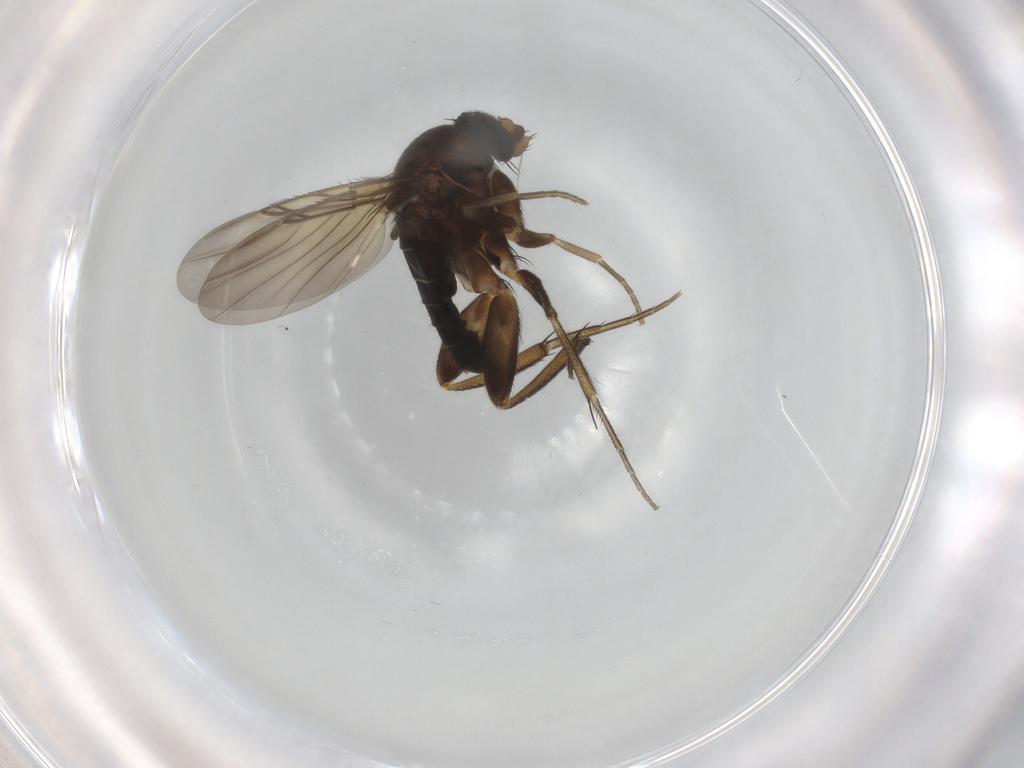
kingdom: Animalia
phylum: Arthropoda
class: Insecta
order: Diptera
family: Phoridae
